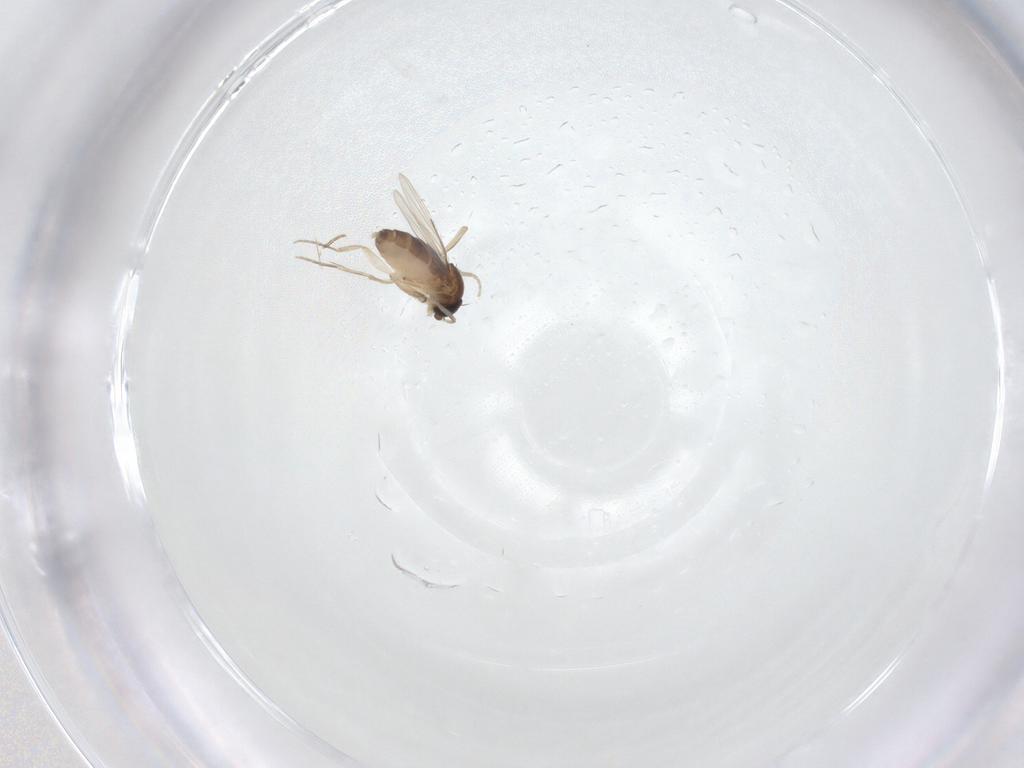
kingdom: Animalia
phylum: Arthropoda
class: Insecta
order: Diptera
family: Phoridae
